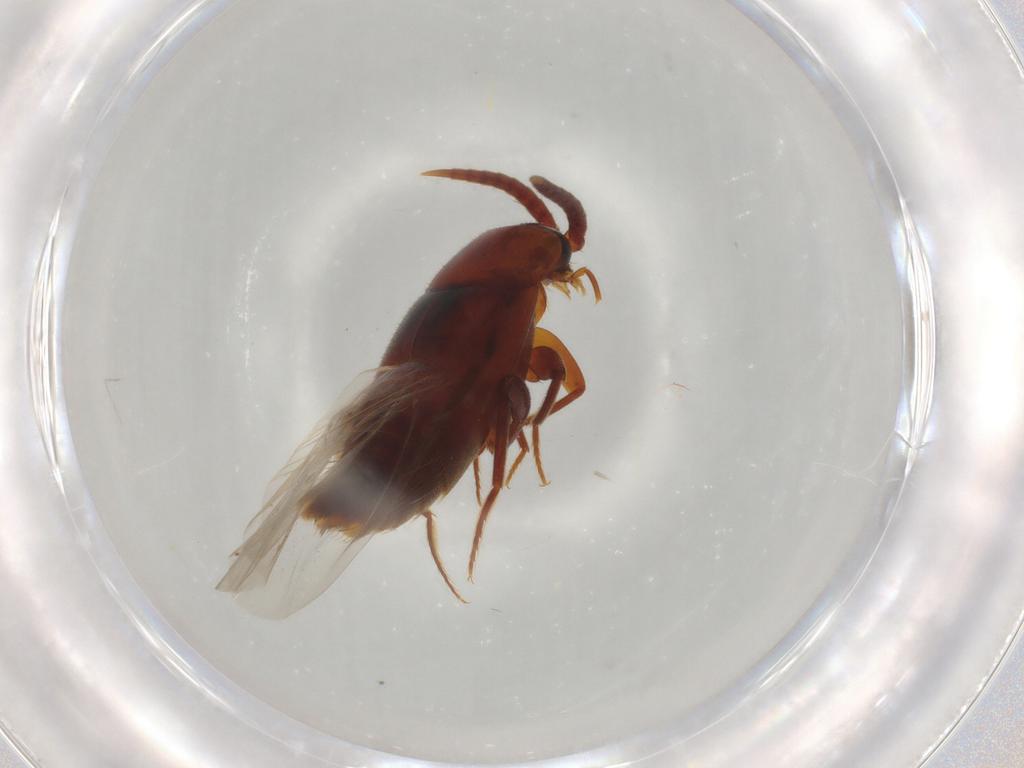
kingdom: Animalia
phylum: Arthropoda
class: Insecta
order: Coleoptera
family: Staphylinidae
